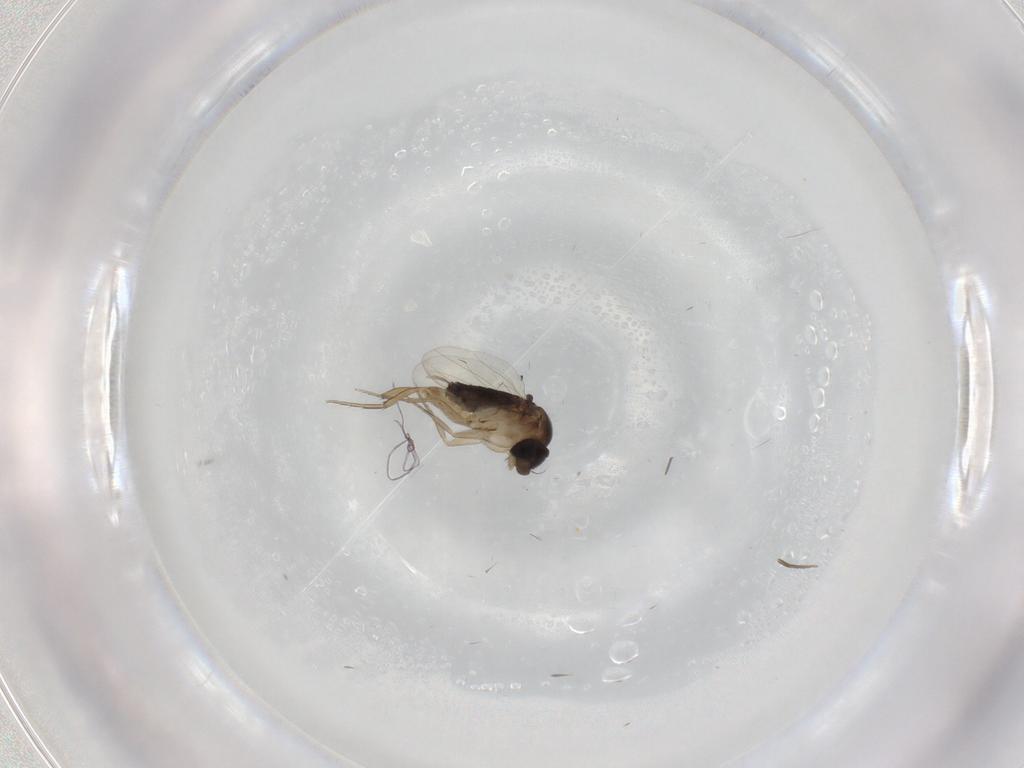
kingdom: Animalia
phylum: Arthropoda
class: Insecta
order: Diptera
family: Phoridae
